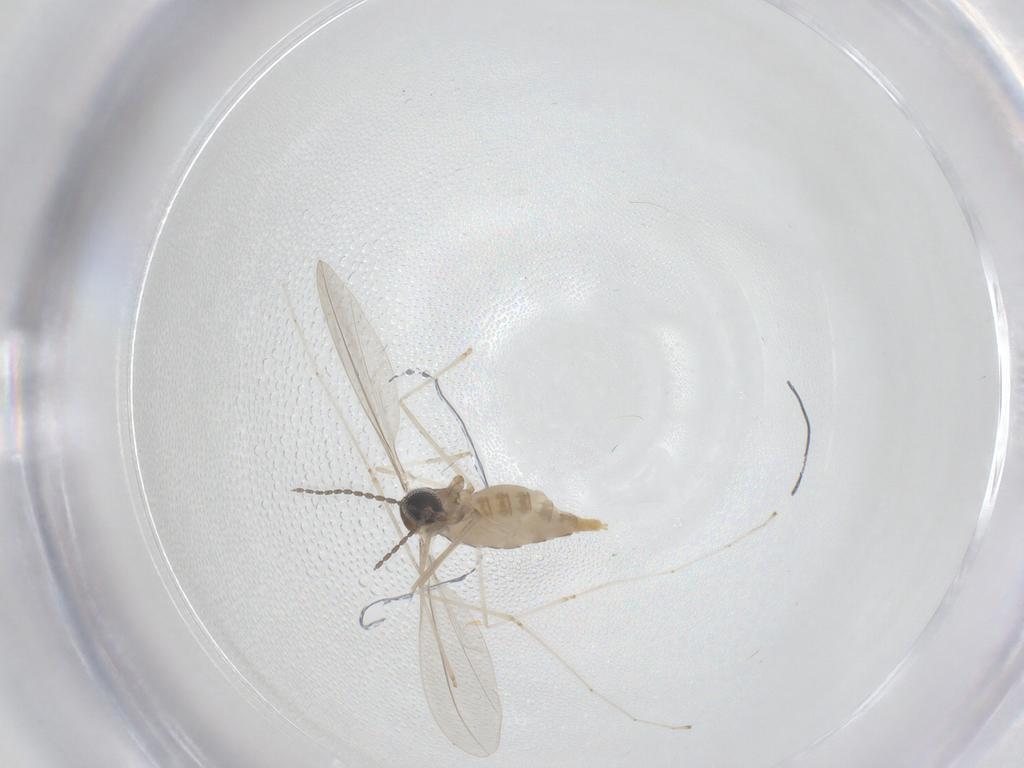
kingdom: Animalia
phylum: Arthropoda
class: Insecta
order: Diptera
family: Cecidomyiidae
